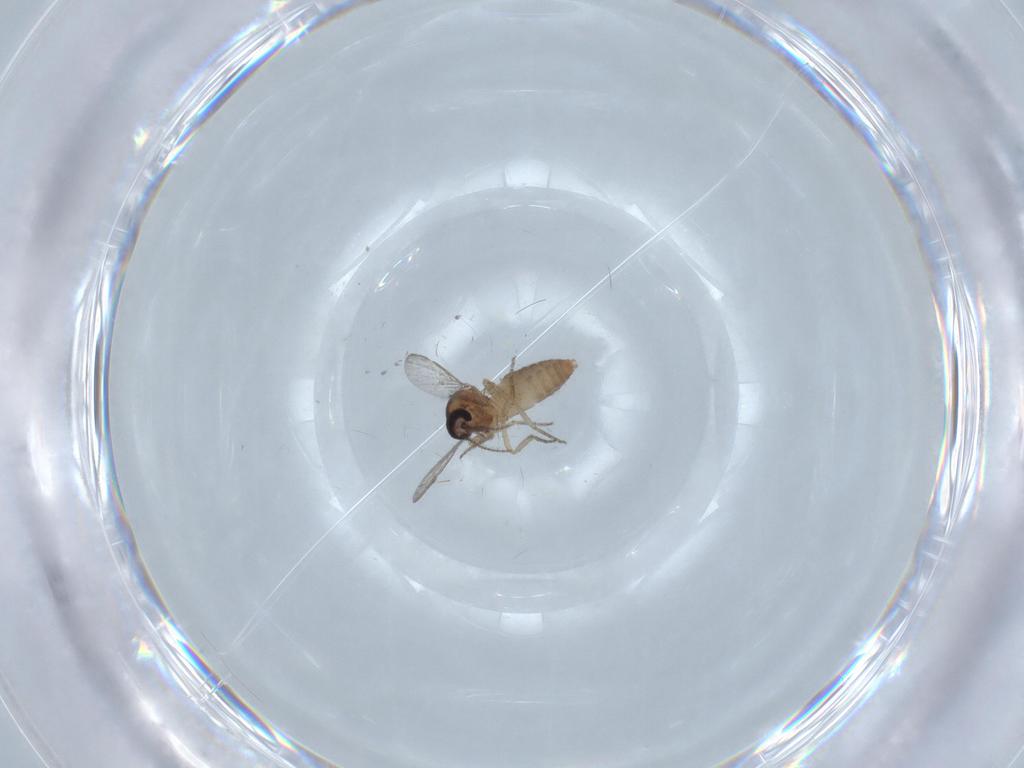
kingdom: Animalia
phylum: Arthropoda
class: Insecta
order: Diptera
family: Ceratopogonidae
